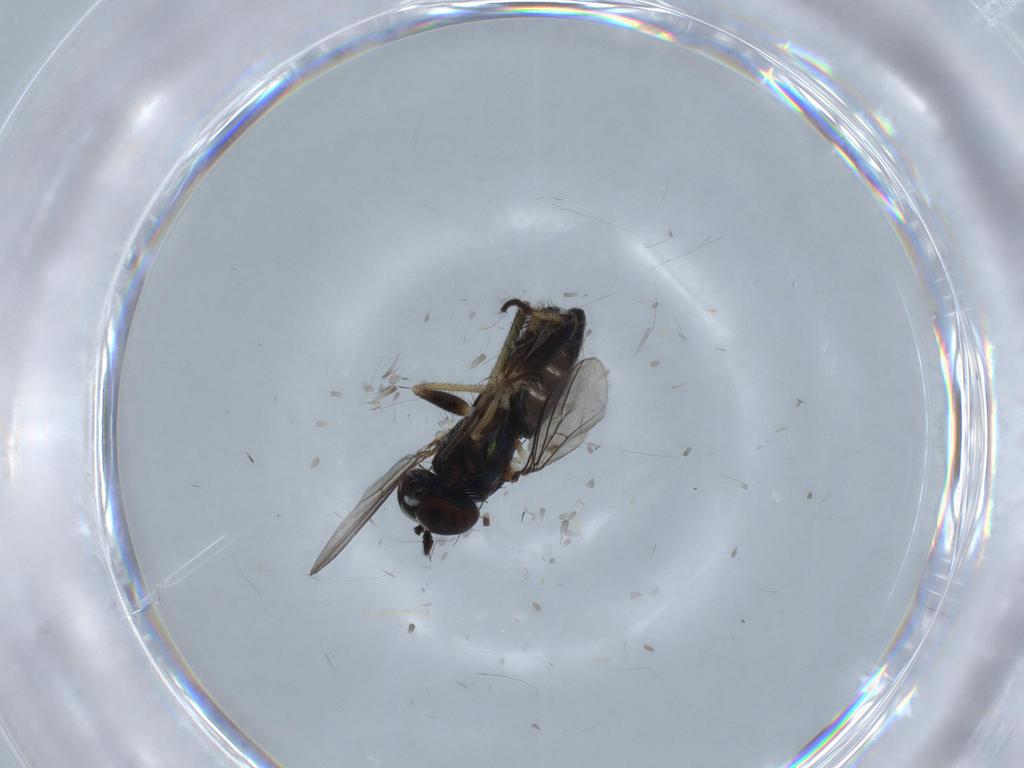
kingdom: Animalia
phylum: Arthropoda
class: Insecta
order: Diptera
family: Dolichopodidae
